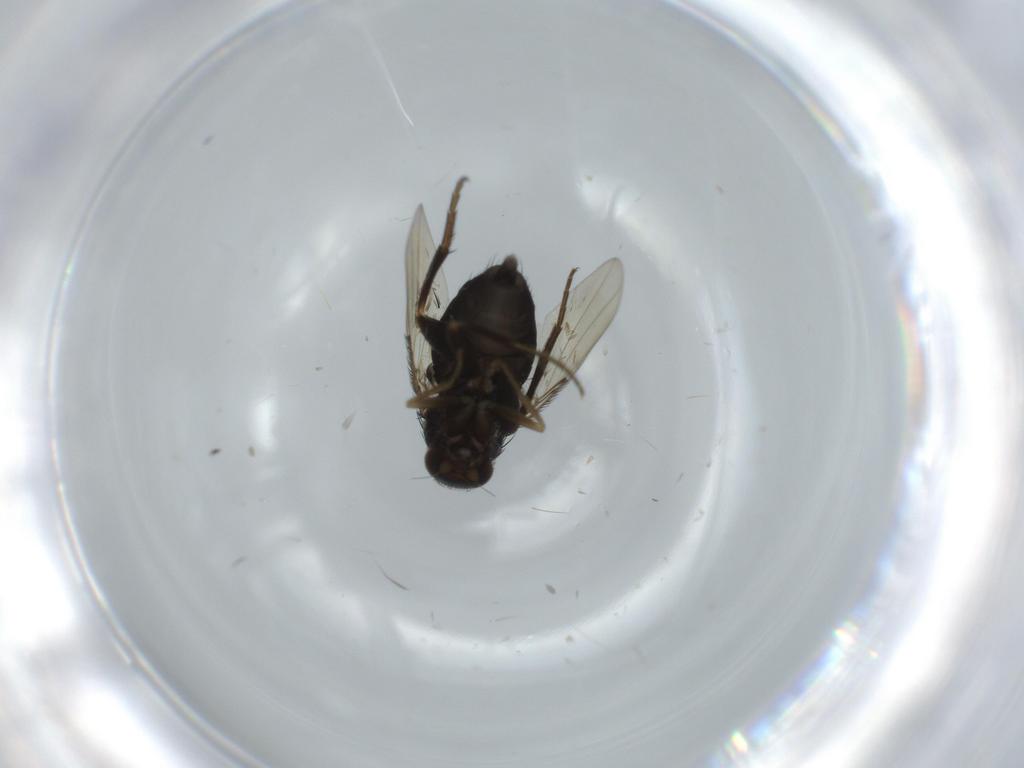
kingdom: Animalia
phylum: Arthropoda
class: Insecta
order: Diptera
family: Phoridae
